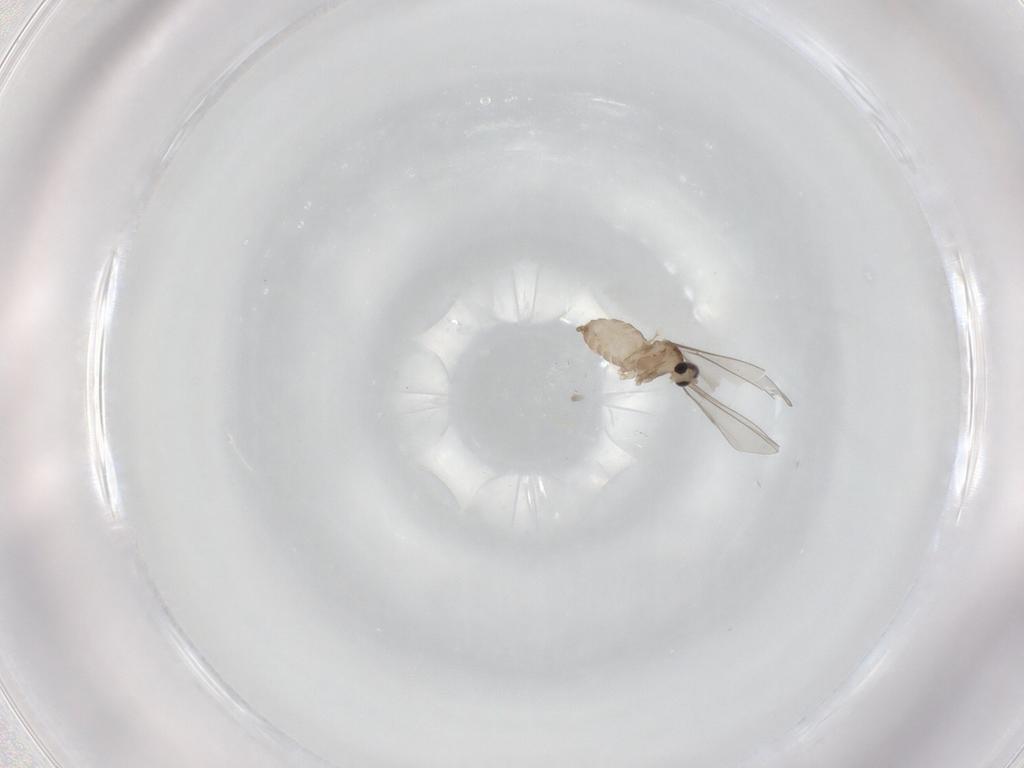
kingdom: Animalia
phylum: Arthropoda
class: Insecta
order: Diptera
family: Cecidomyiidae
